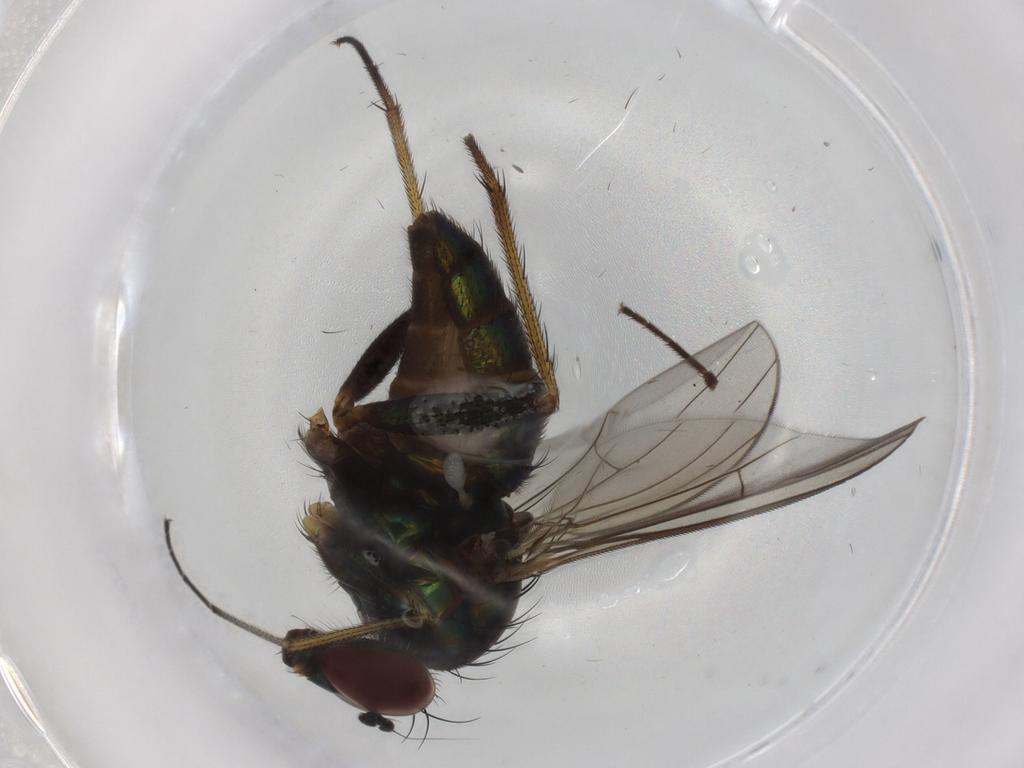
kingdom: Animalia
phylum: Arthropoda
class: Insecta
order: Diptera
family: Dolichopodidae
